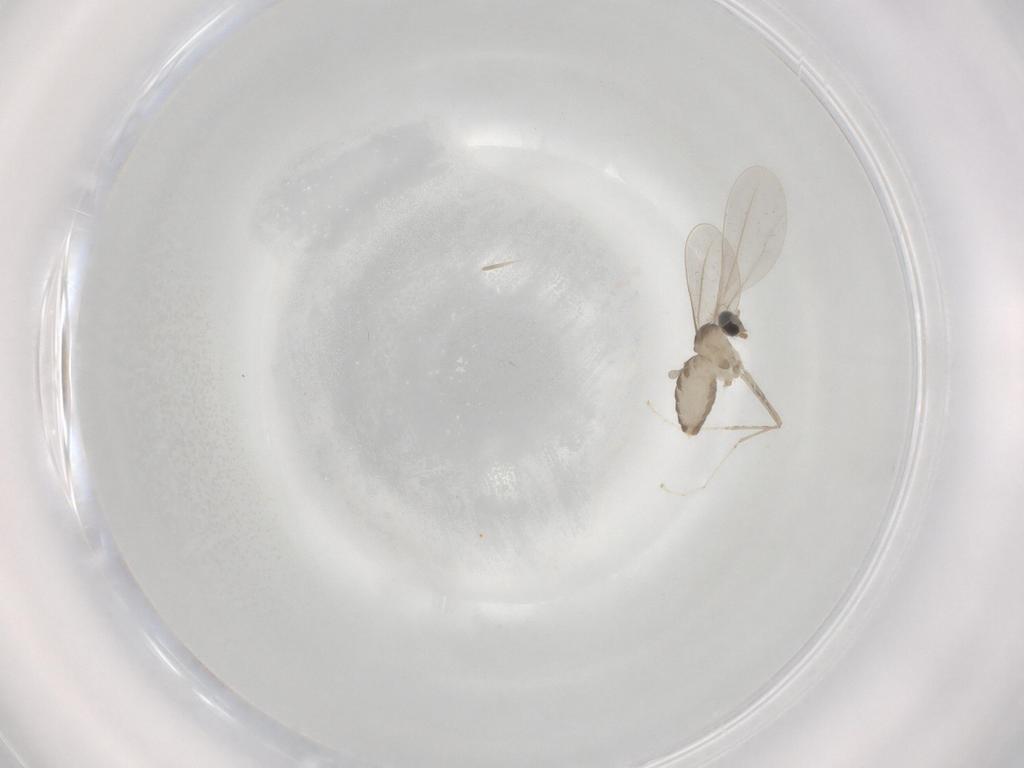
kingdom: Animalia
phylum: Arthropoda
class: Insecta
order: Diptera
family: Cecidomyiidae
